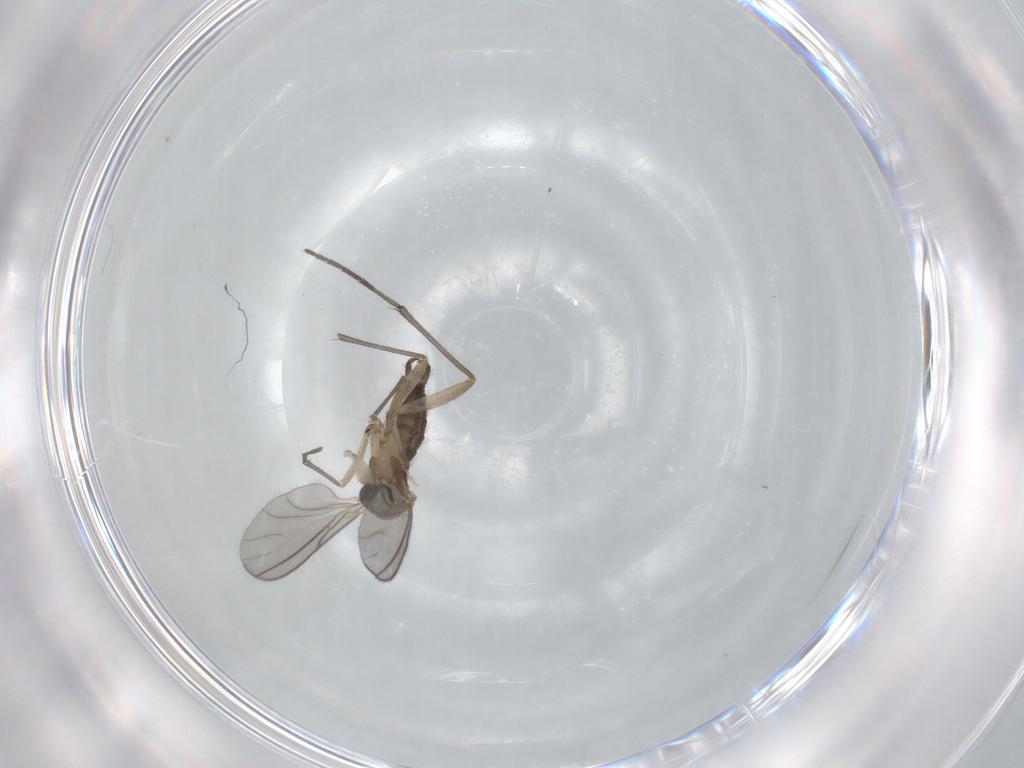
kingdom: Animalia
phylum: Arthropoda
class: Insecta
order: Diptera
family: Sciaridae
